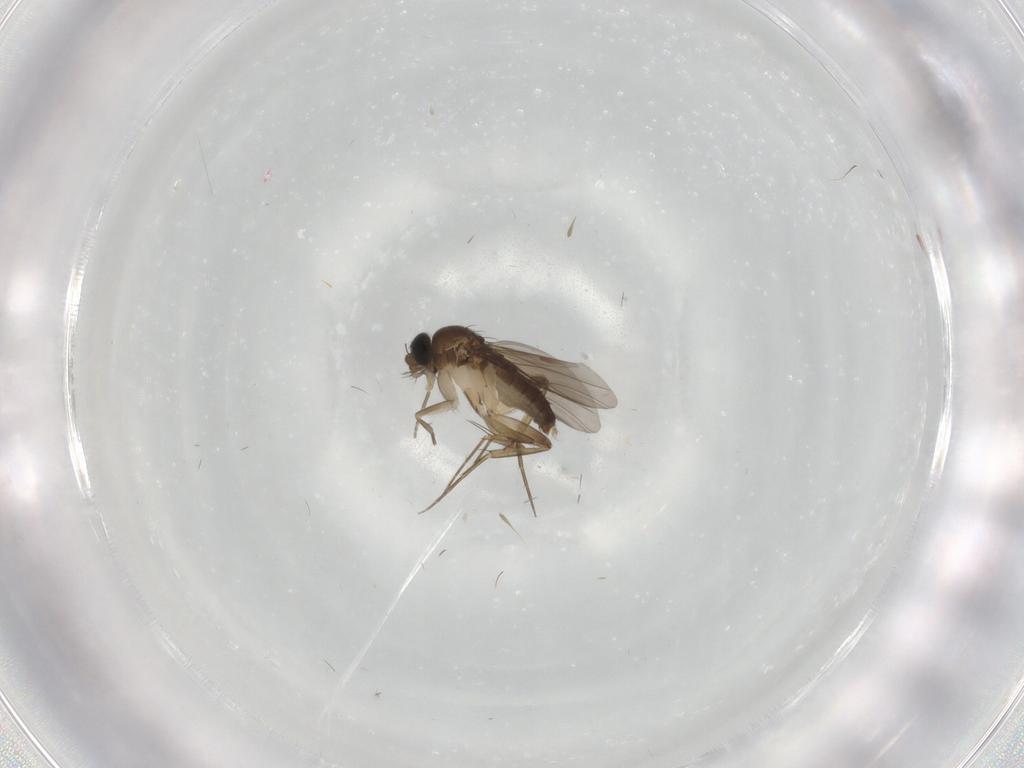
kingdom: Animalia
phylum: Arthropoda
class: Insecta
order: Diptera
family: Phoridae
